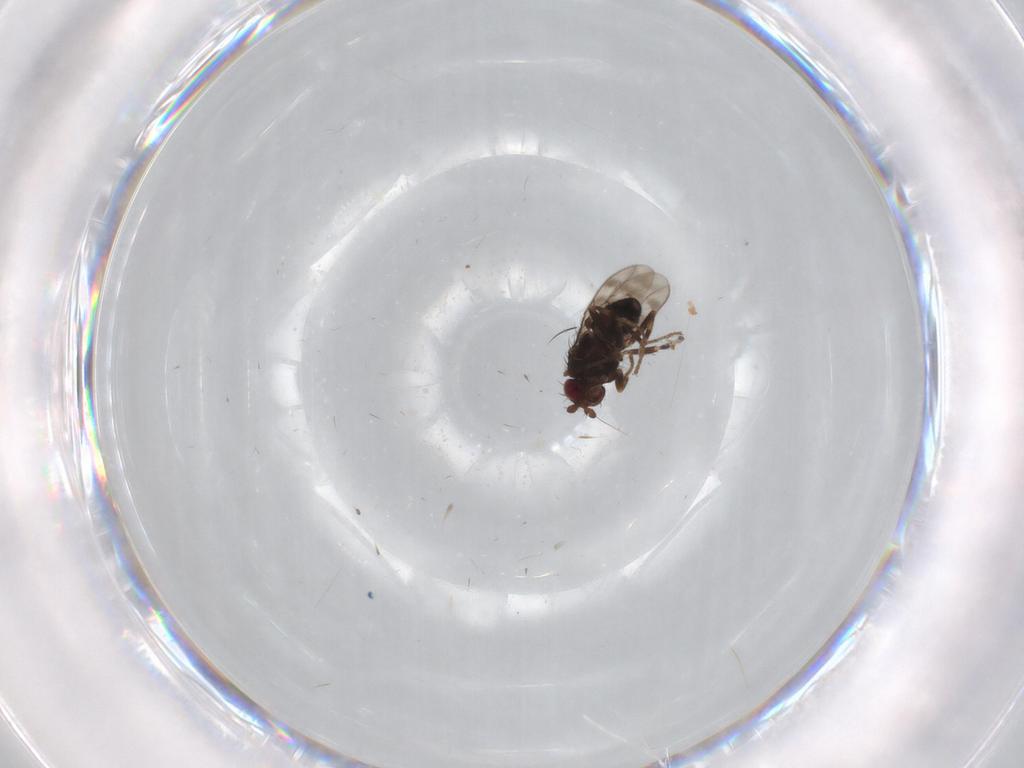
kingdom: Animalia
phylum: Arthropoda
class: Insecta
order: Diptera
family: Sphaeroceridae
